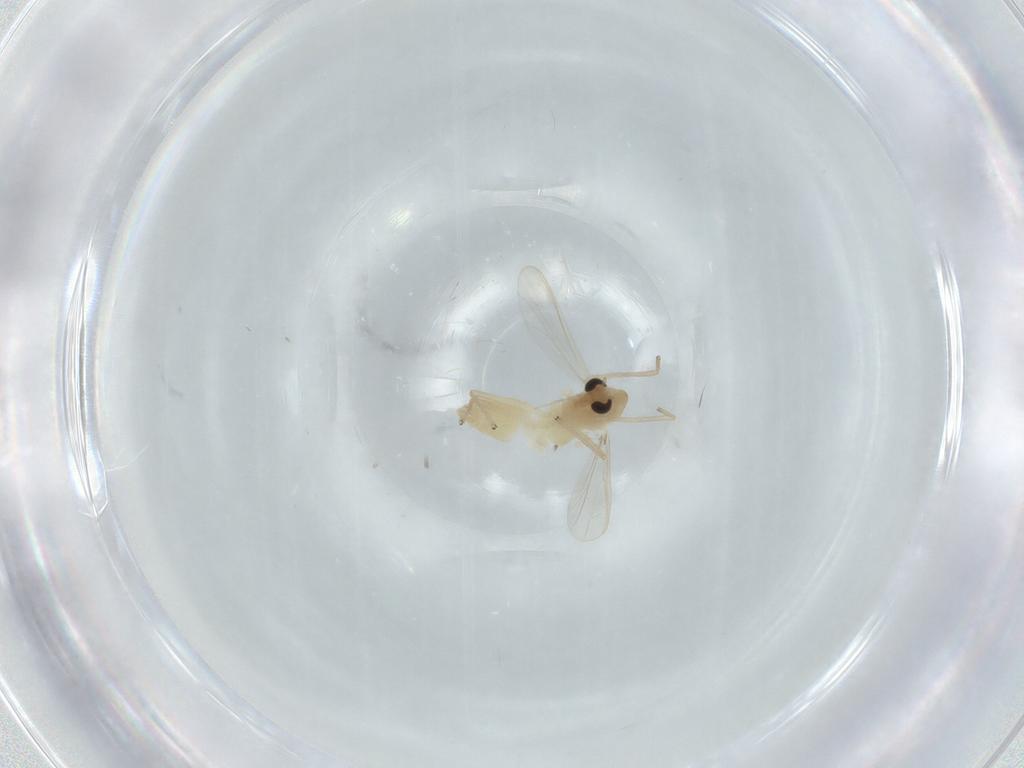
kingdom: Animalia
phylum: Arthropoda
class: Insecta
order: Diptera
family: Chironomidae
